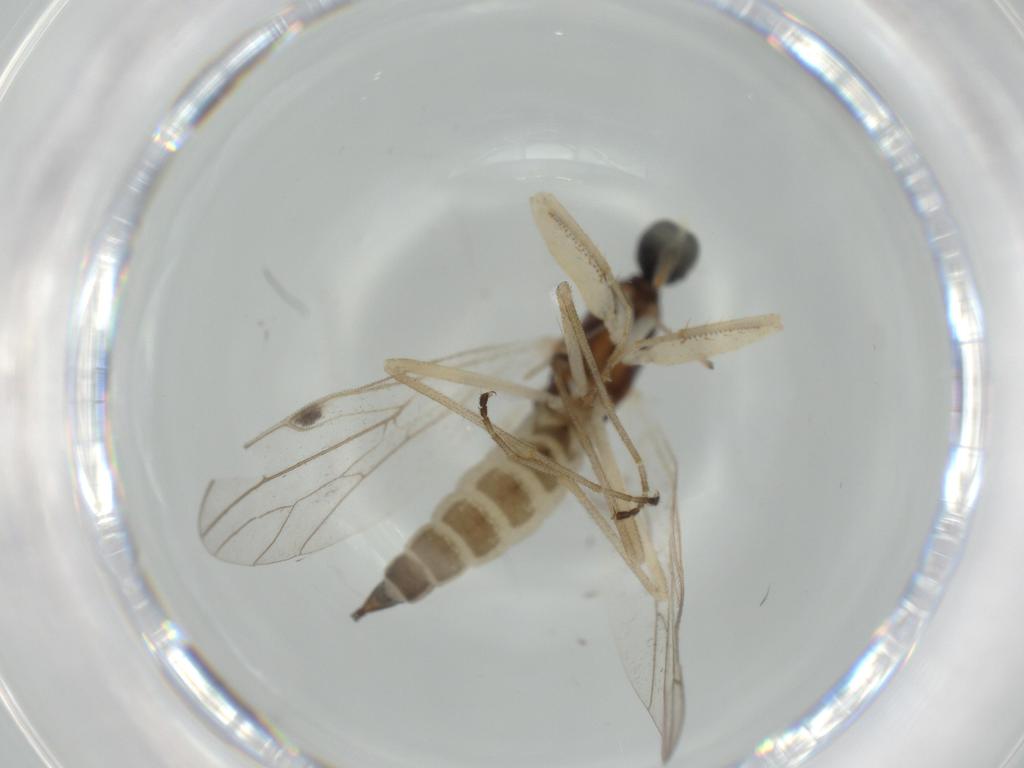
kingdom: Animalia
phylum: Arthropoda
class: Insecta
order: Diptera
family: Empididae
